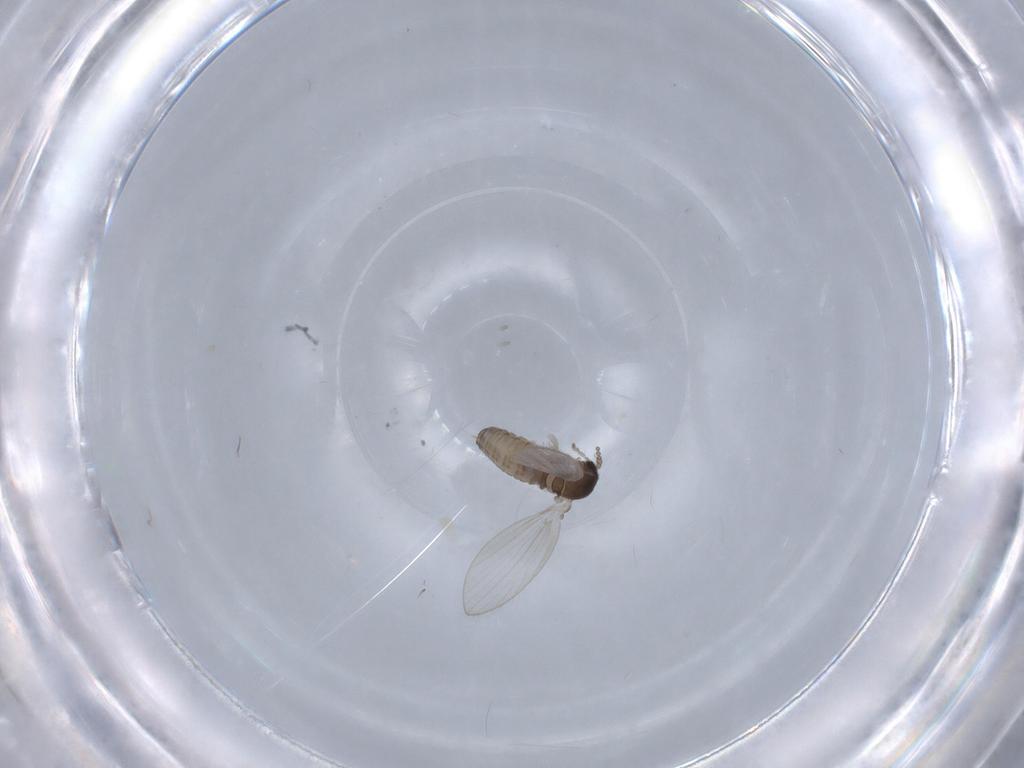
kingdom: Animalia
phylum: Arthropoda
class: Insecta
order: Diptera
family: Psychodidae
